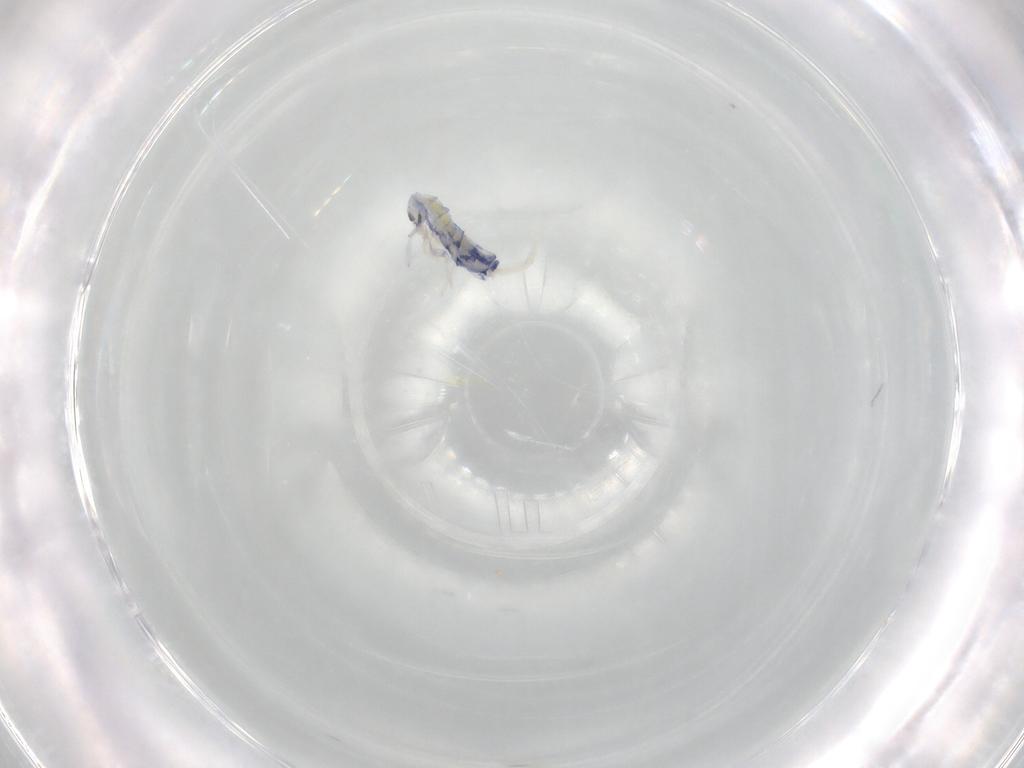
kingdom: Animalia
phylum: Arthropoda
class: Collembola
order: Entomobryomorpha
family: Entomobryidae
